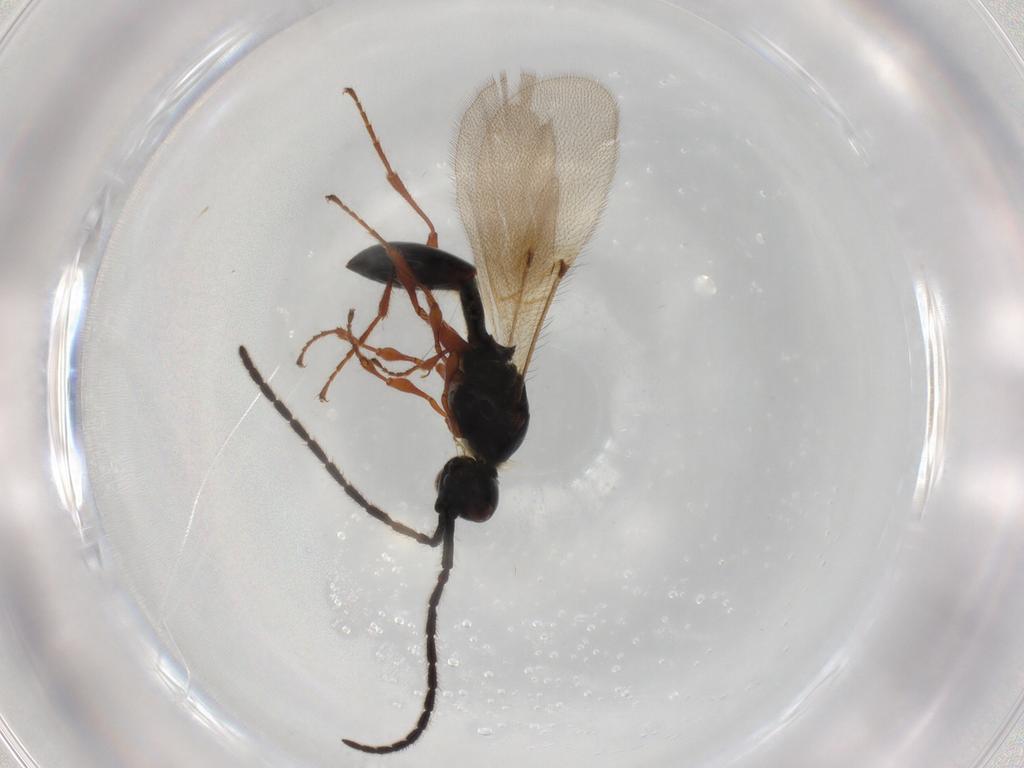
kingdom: Animalia
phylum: Arthropoda
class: Insecta
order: Hymenoptera
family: Diapriidae
